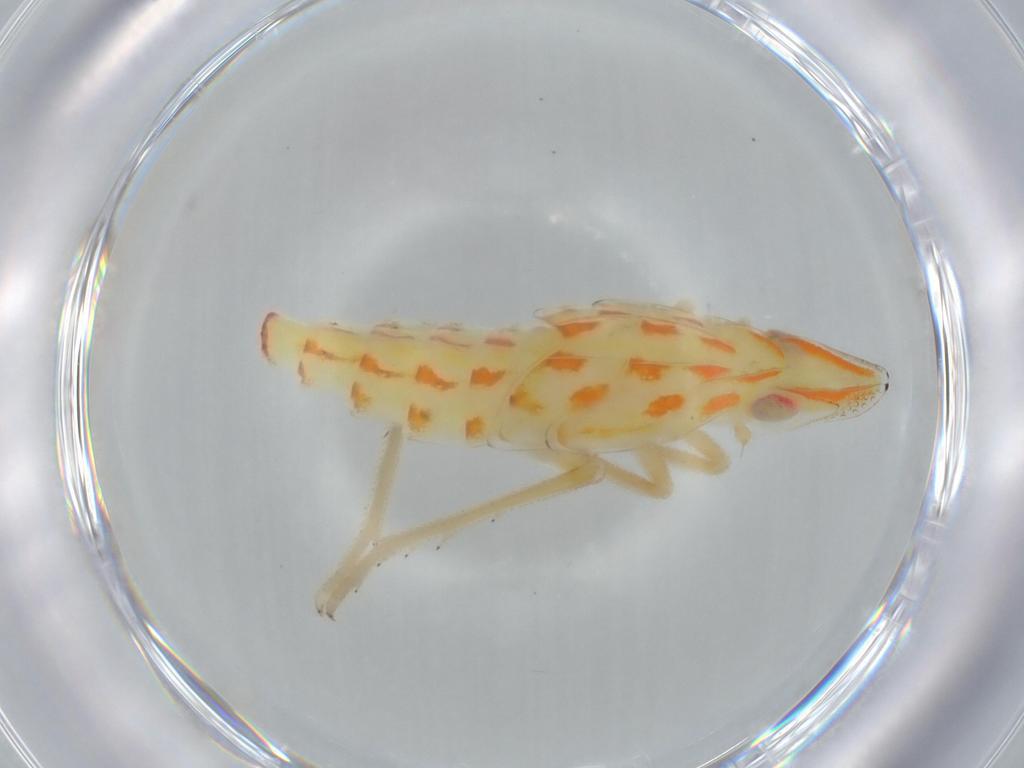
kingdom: Animalia
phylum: Arthropoda
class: Insecta
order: Hemiptera
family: Tropiduchidae
